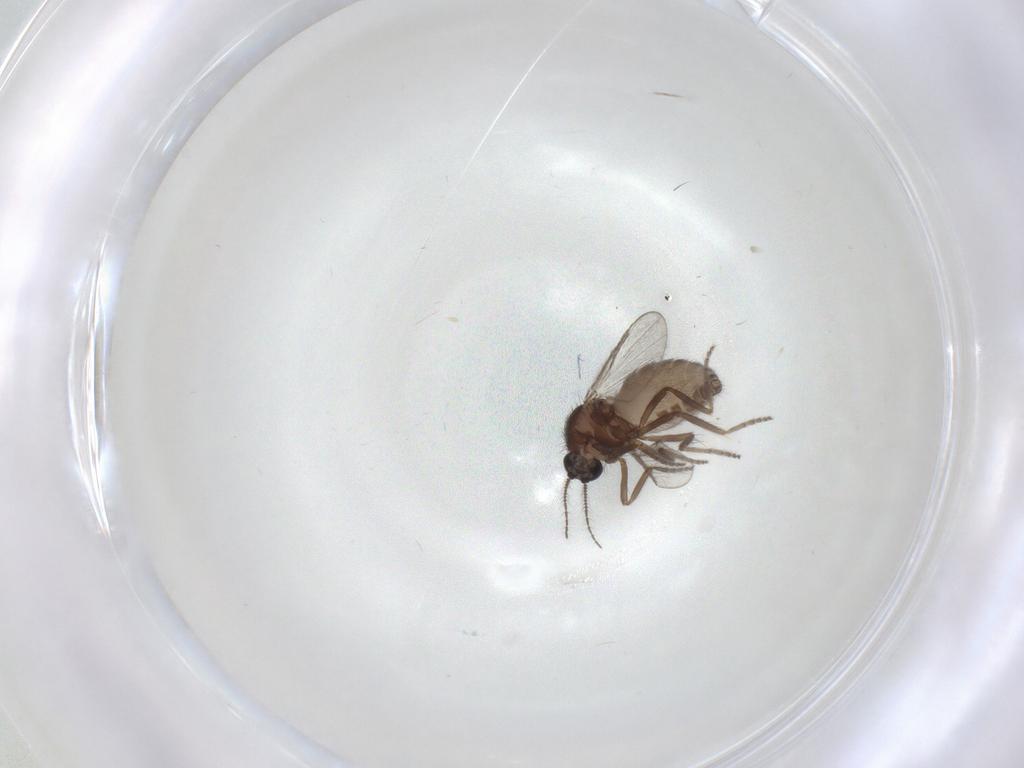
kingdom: Animalia
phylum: Arthropoda
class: Insecta
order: Diptera
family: Ceratopogonidae
